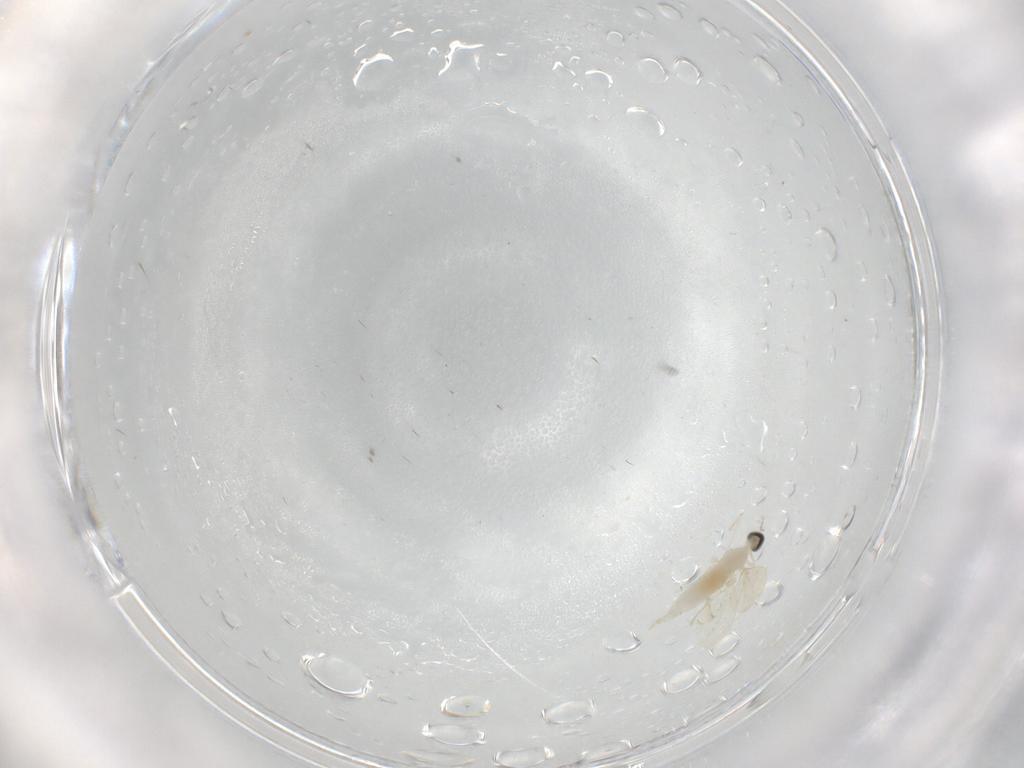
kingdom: Animalia
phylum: Arthropoda
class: Insecta
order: Diptera
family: Cecidomyiidae
